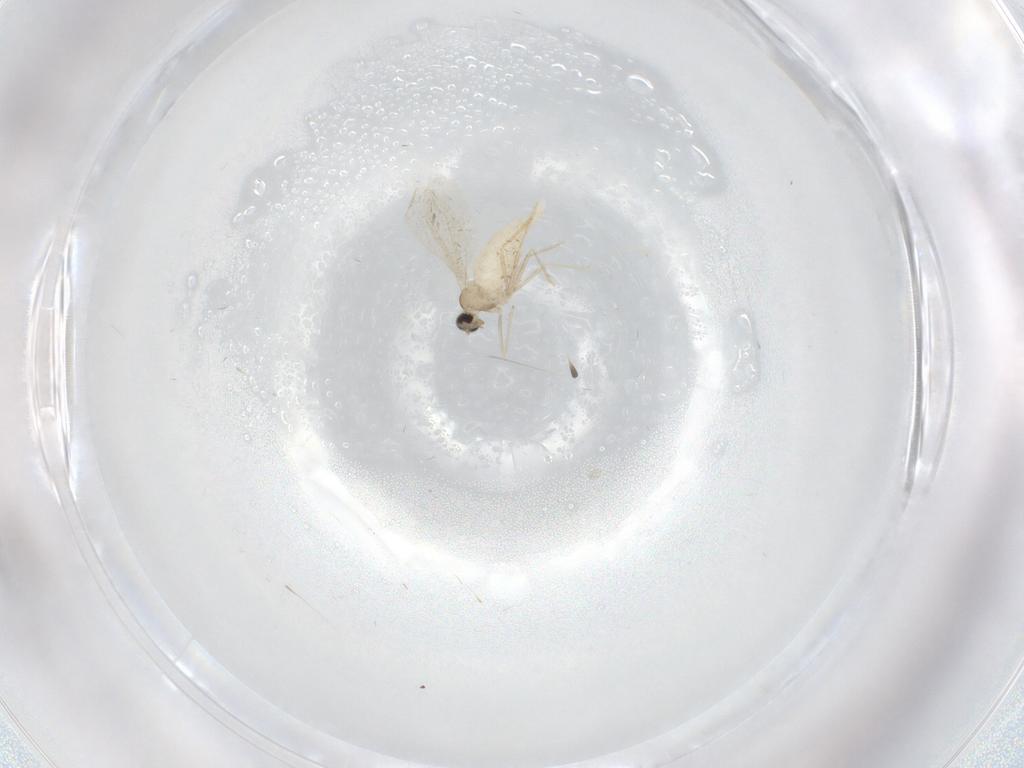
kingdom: Animalia
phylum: Arthropoda
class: Insecta
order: Diptera
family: Cecidomyiidae
